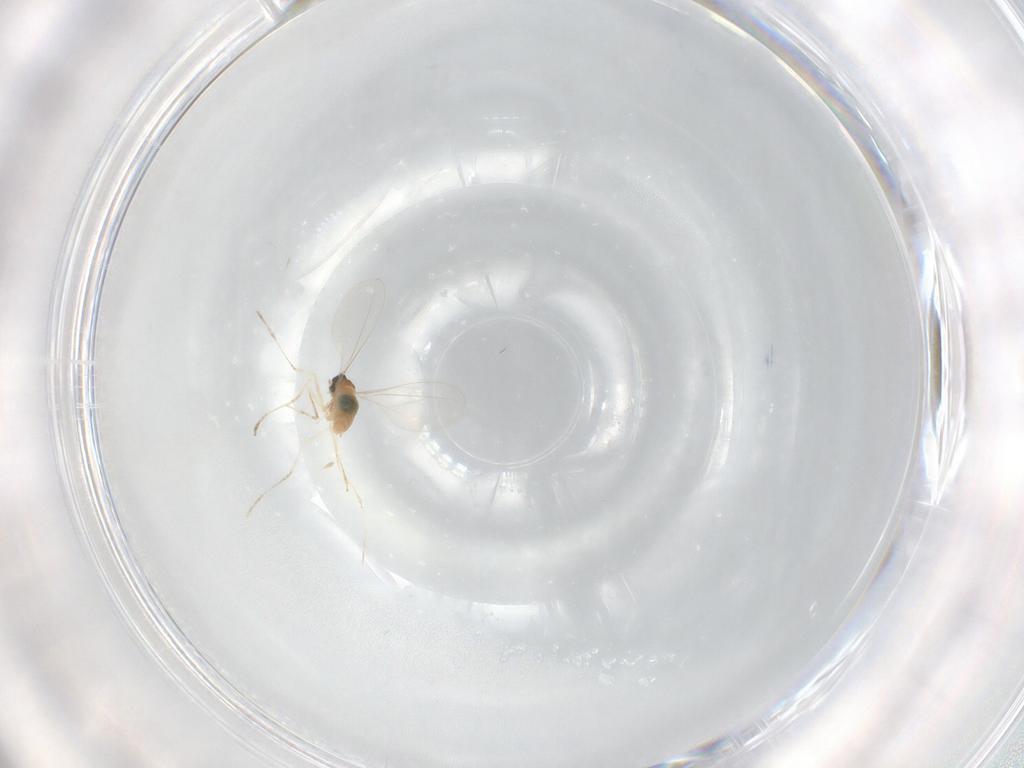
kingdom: Animalia
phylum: Arthropoda
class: Insecta
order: Diptera
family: Cecidomyiidae
